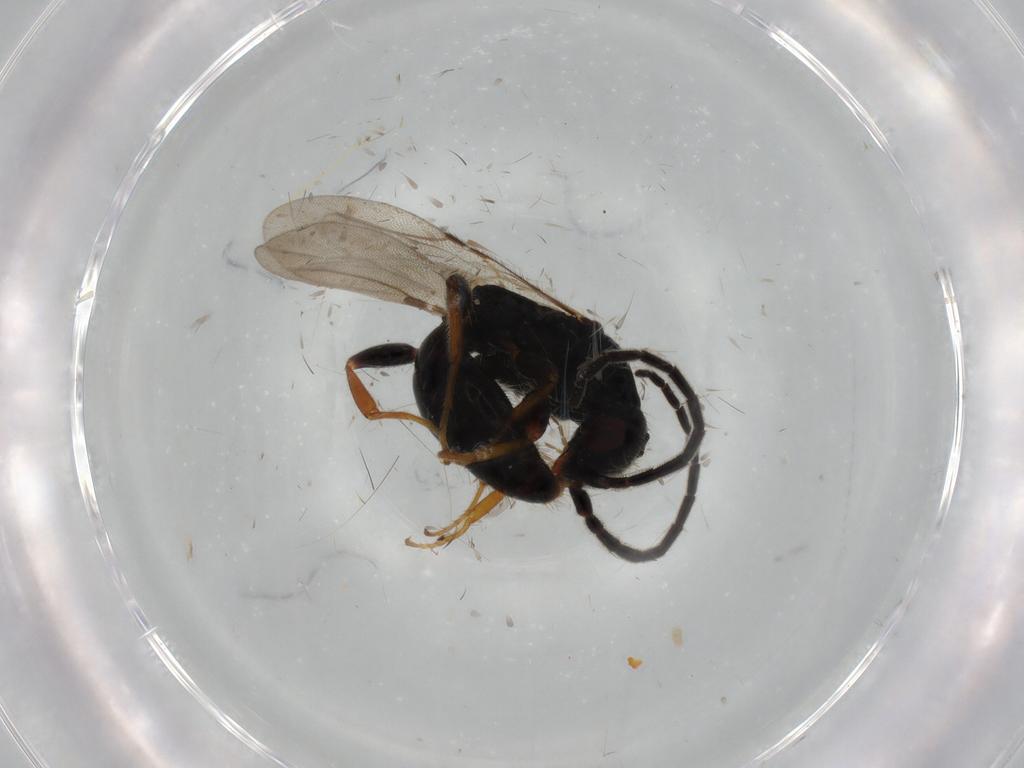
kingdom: Animalia
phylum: Arthropoda
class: Insecta
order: Hymenoptera
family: Bethylidae
